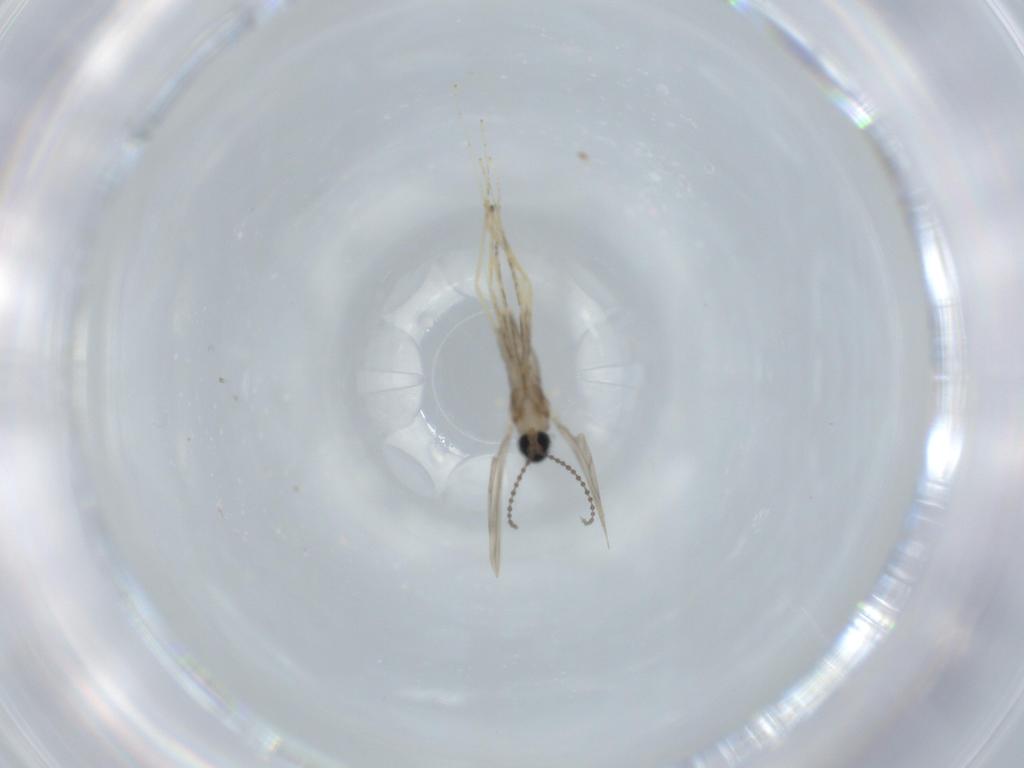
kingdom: Animalia
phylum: Arthropoda
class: Insecta
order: Diptera
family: Cecidomyiidae
